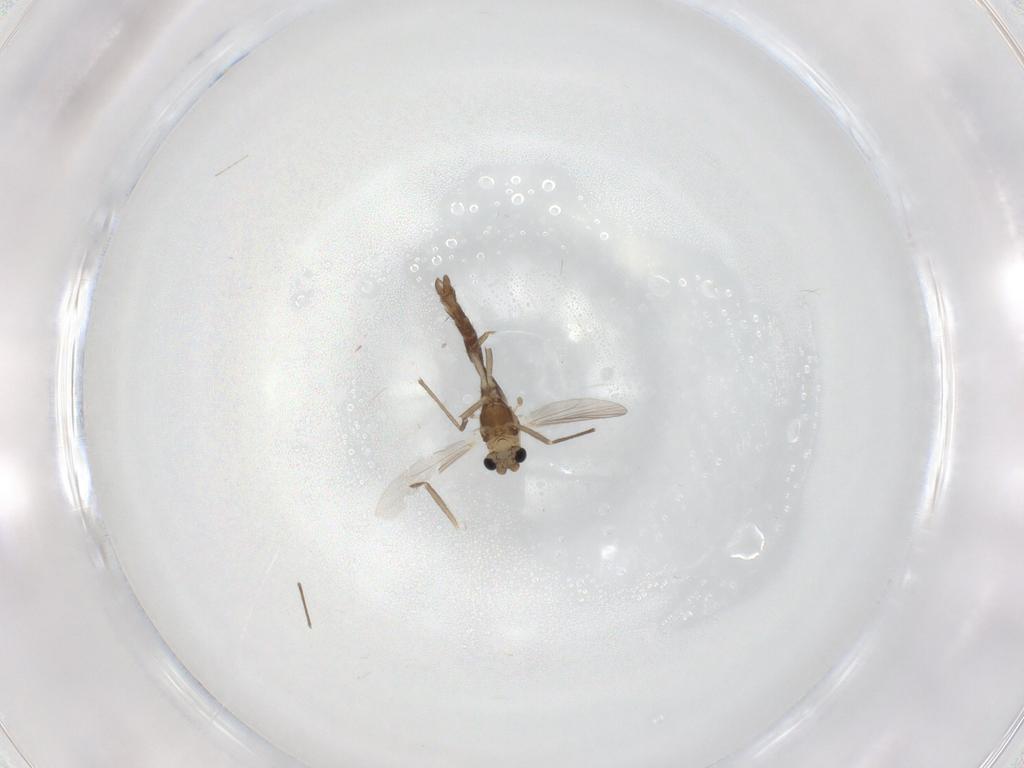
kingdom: Animalia
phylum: Arthropoda
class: Insecta
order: Diptera
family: Chironomidae
